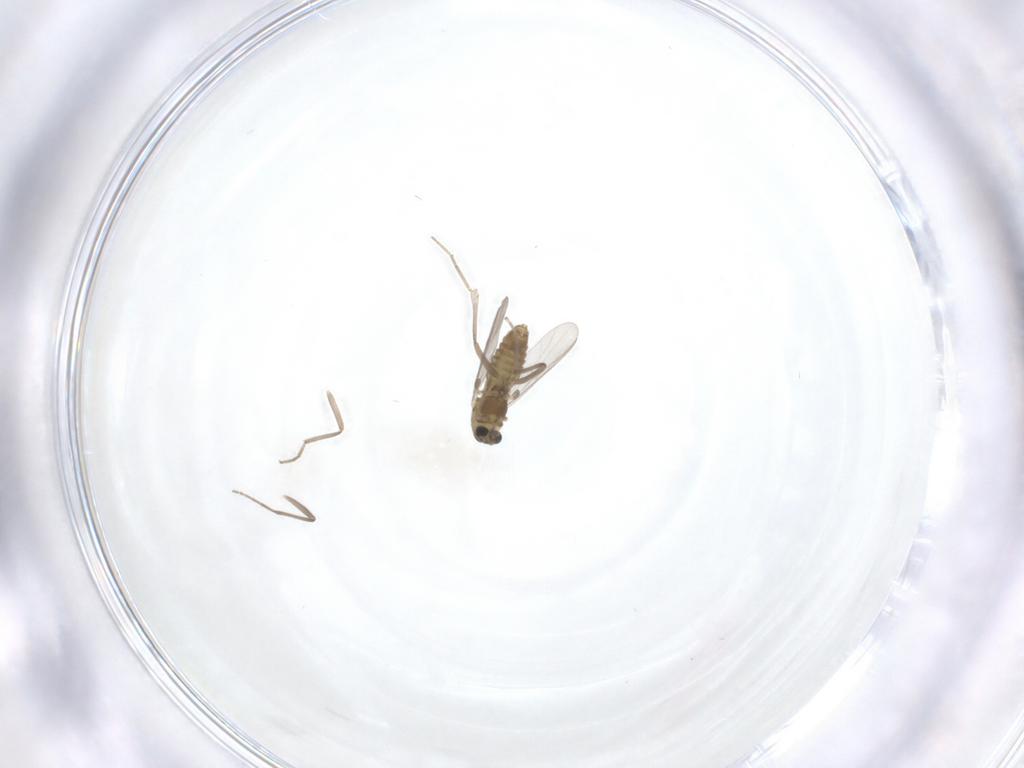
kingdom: Animalia
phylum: Arthropoda
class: Insecta
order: Diptera
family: Chironomidae
